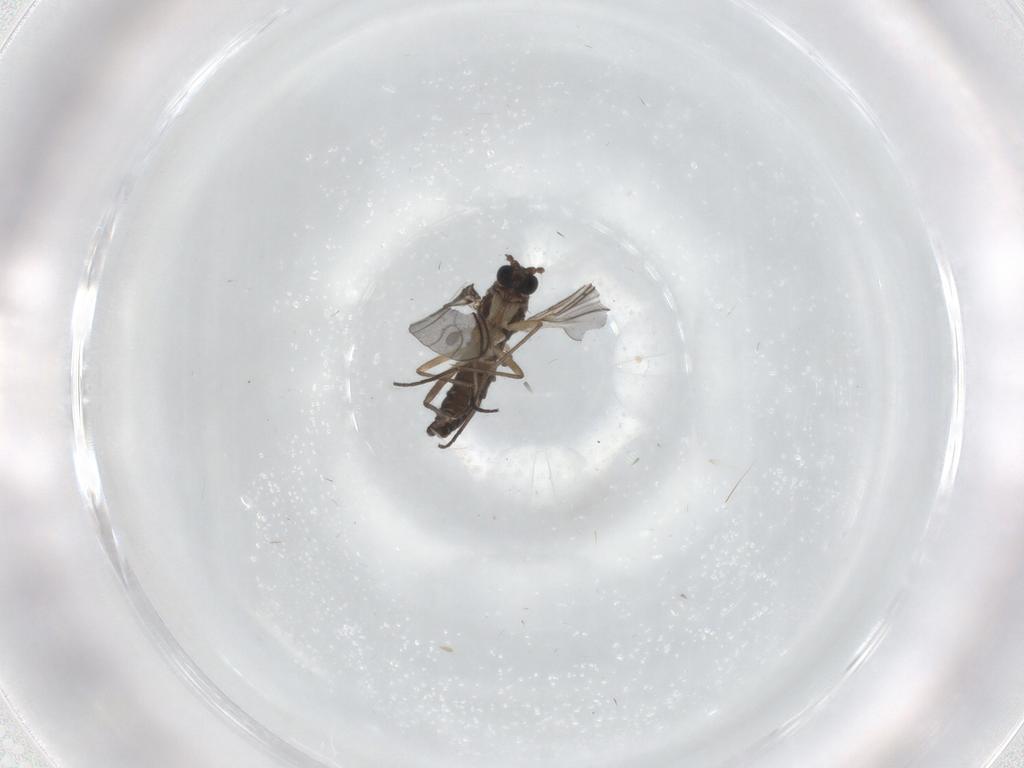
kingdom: Animalia
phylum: Arthropoda
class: Insecta
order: Diptera
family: Sciaridae
